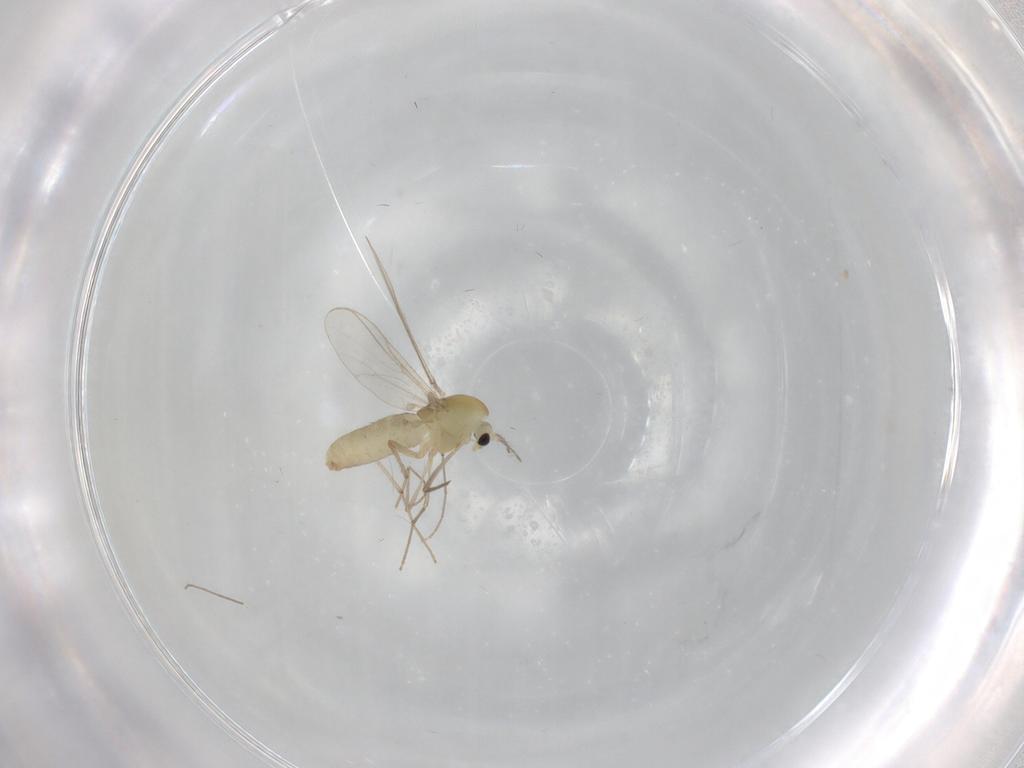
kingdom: Animalia
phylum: Arthropoda
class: Insecta
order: Diptera
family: Chironomidae
